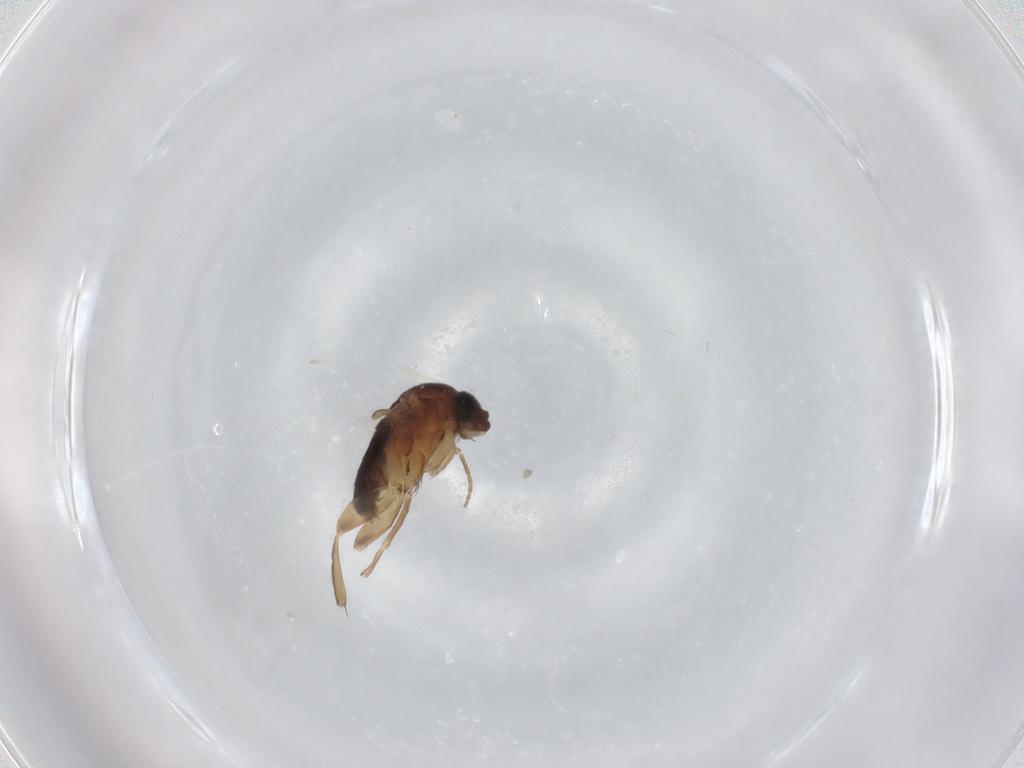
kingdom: Animalia
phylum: Arthropoda
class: Insecta
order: Diptera
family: Phoridae
